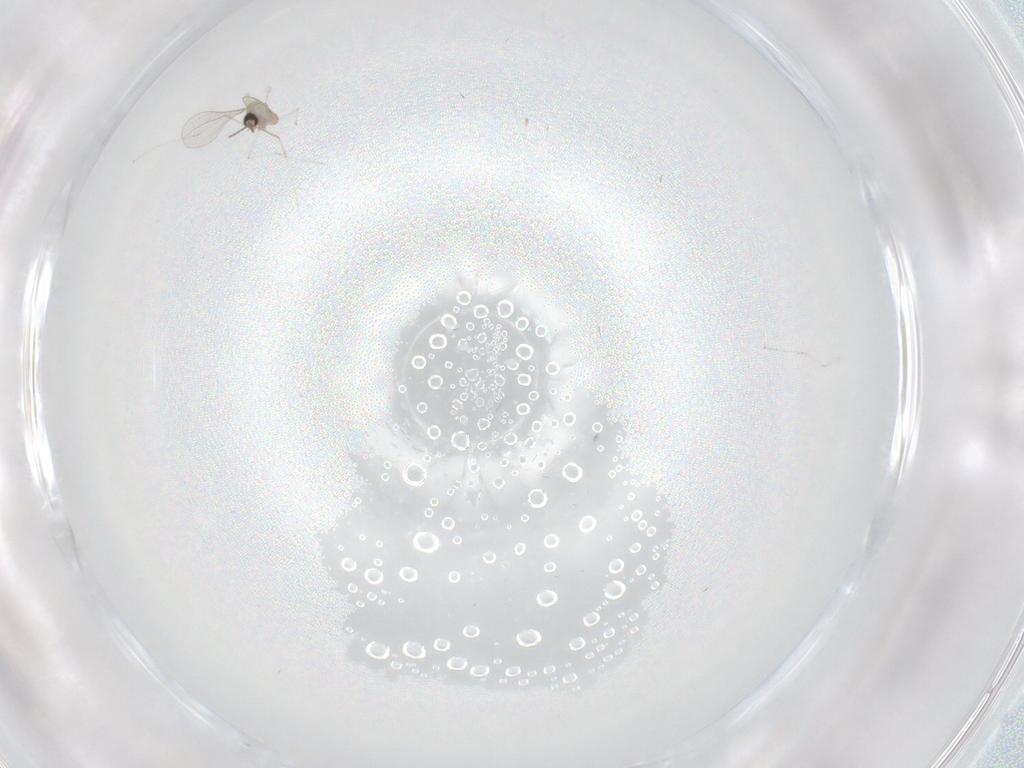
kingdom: Animalia
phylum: Arthropoda
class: Insecta
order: Diptera
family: Cecidomyiidae
